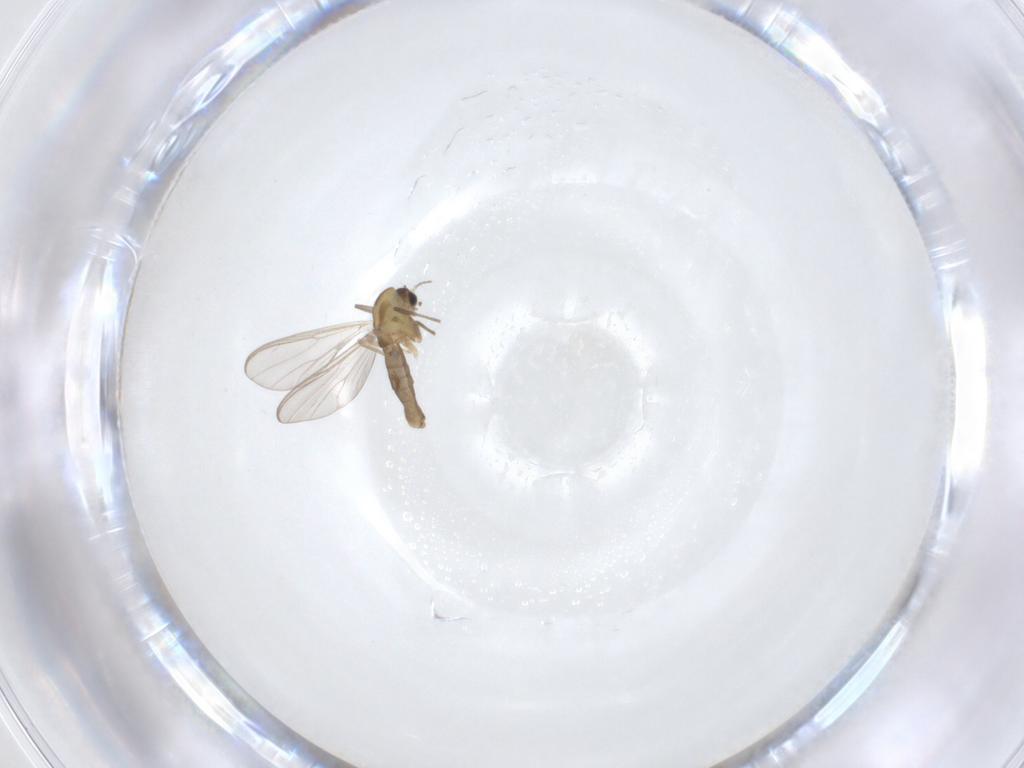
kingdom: Animalia
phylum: Arthropoda
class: Insecta
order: Diptera
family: Chironomidae
